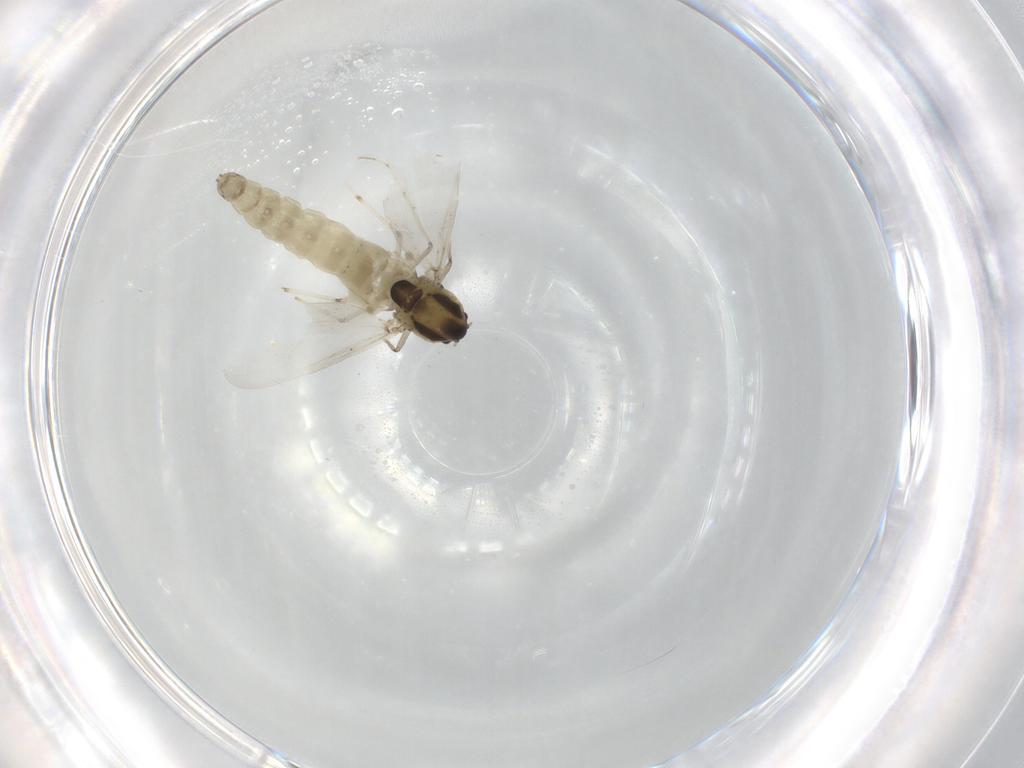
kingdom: Animalia
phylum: Arthropoda
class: Insecta
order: Diptera
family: Chironomidae
